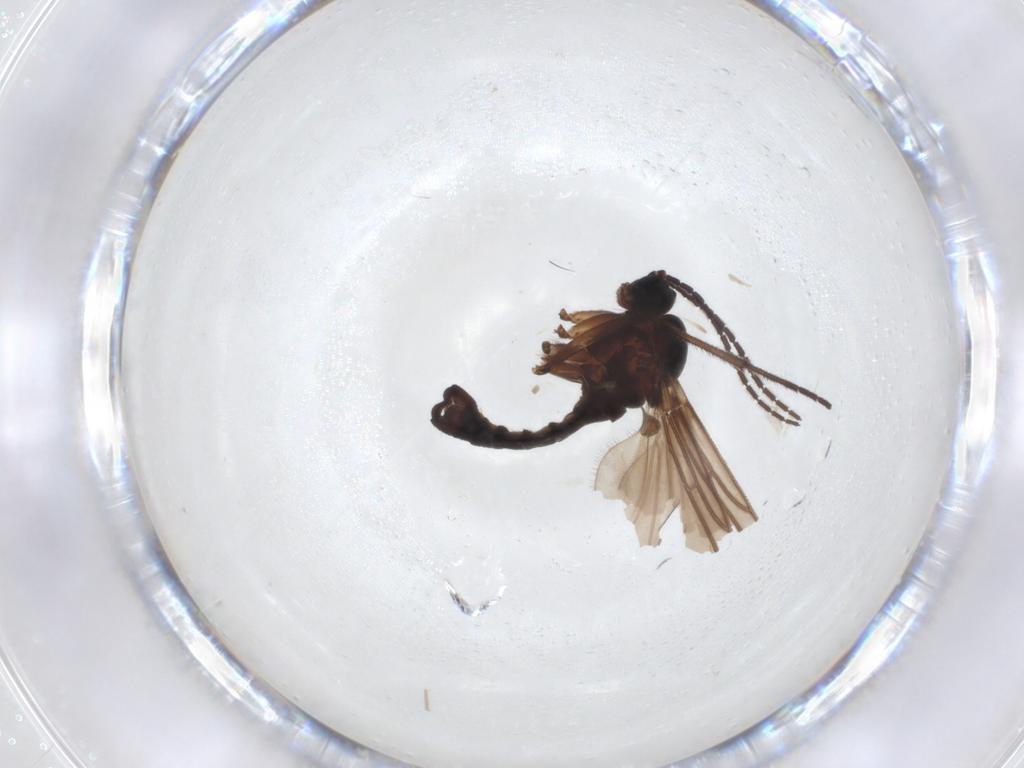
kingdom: Animalia
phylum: Arthropoda
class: Insecta
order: Diptera
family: Sciaridae
